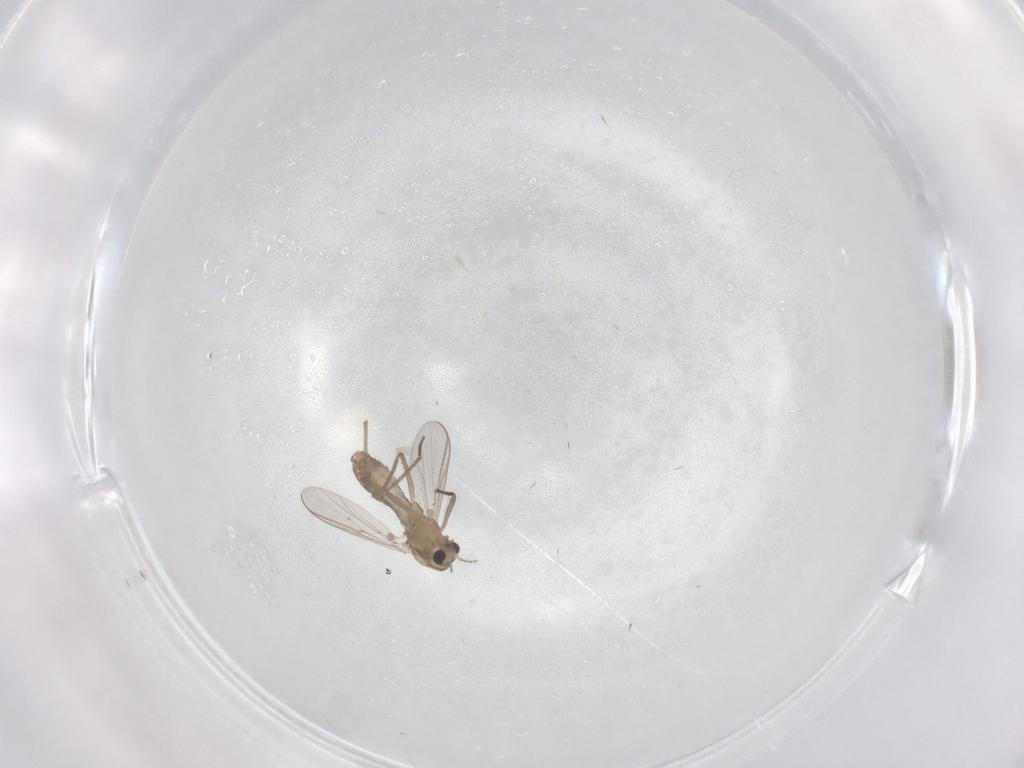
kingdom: Animalia
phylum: Arthropoda
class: Insecta
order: Diptera
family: Chironomidae
